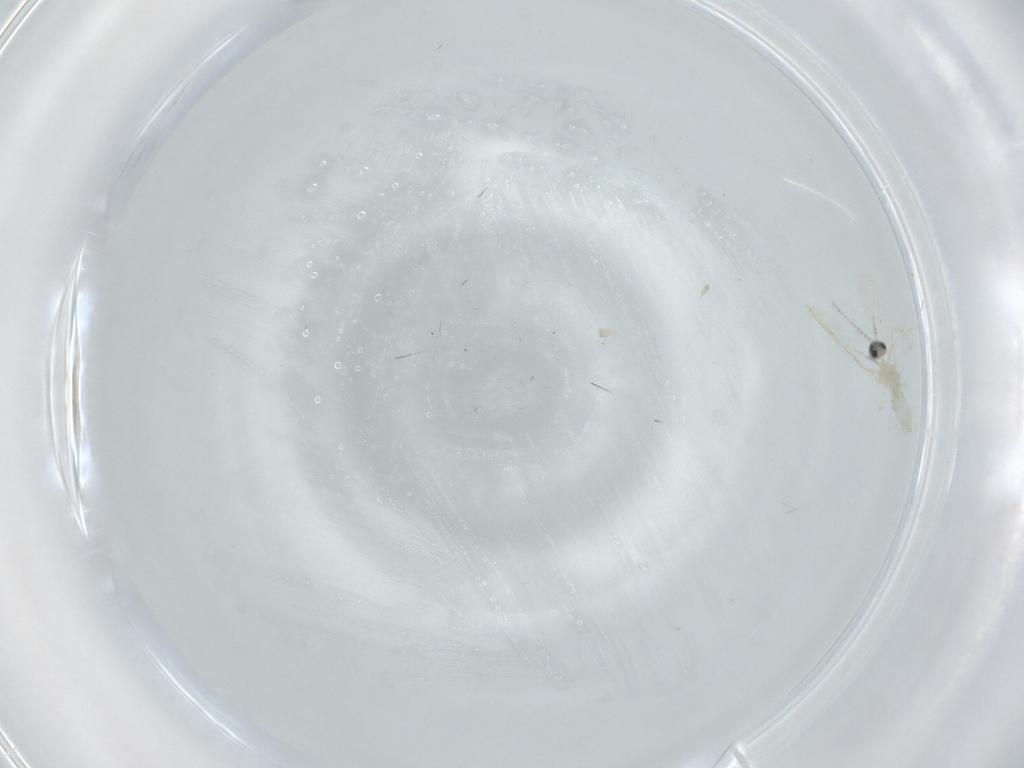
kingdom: Animalia
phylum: Arthropoda
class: Insecta
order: Diptera
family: Cecidomyiidae
